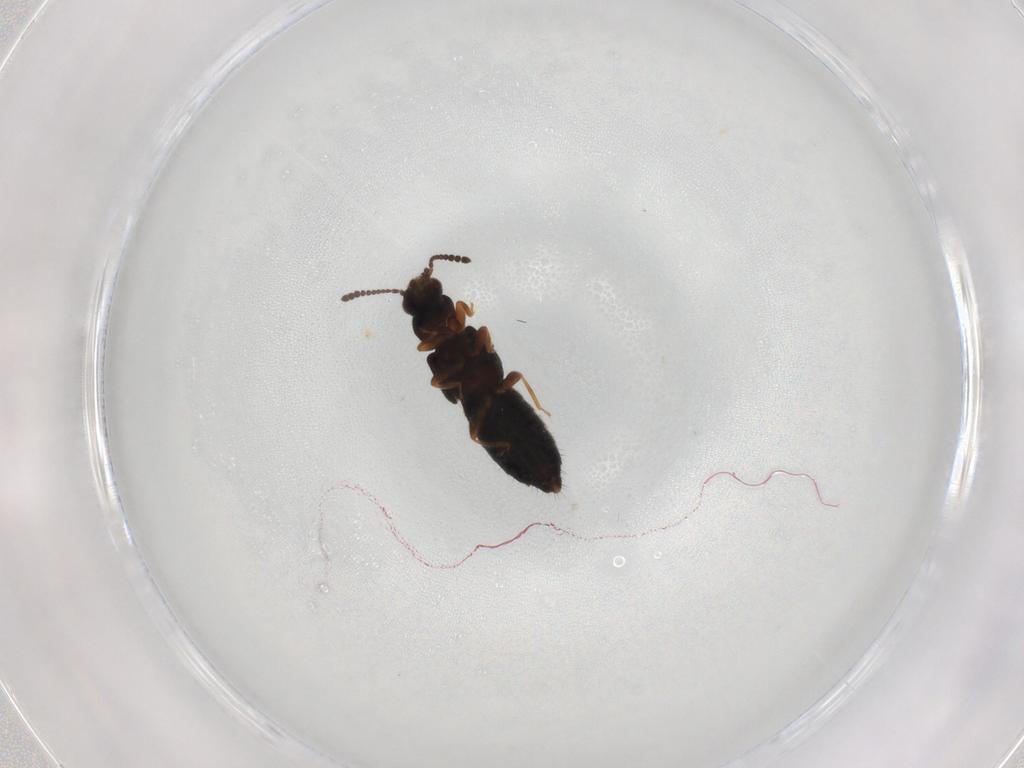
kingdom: Animalia
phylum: Arthropoda
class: Insecta
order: Coleoptera
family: Staphylinidae
